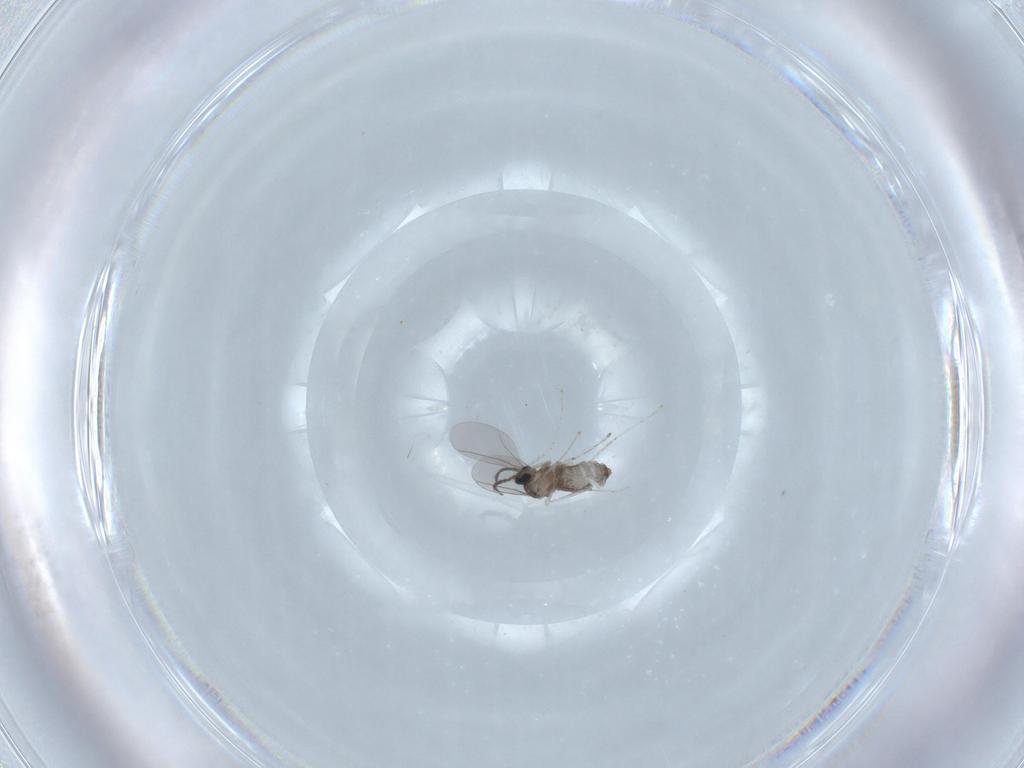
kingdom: Animalia
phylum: Arthropoda
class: Insecta
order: Diptera
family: Cecidomyiidae
